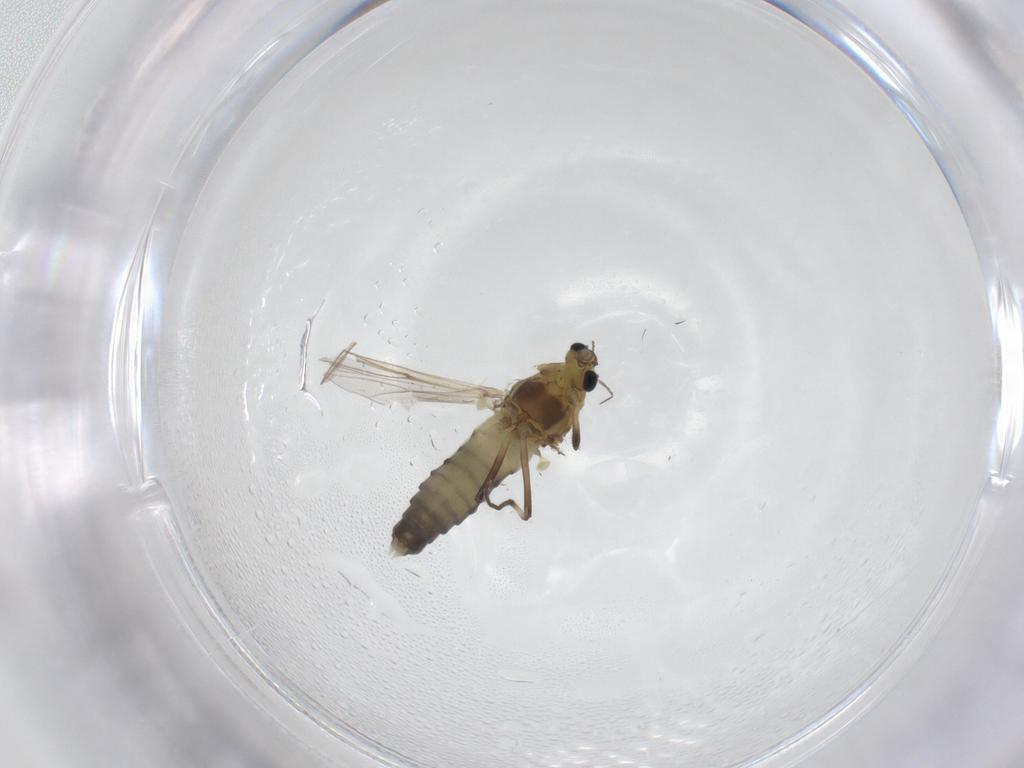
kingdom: Animalia
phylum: Arthropoda
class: Insecta
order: Diptera
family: Chironomidae
